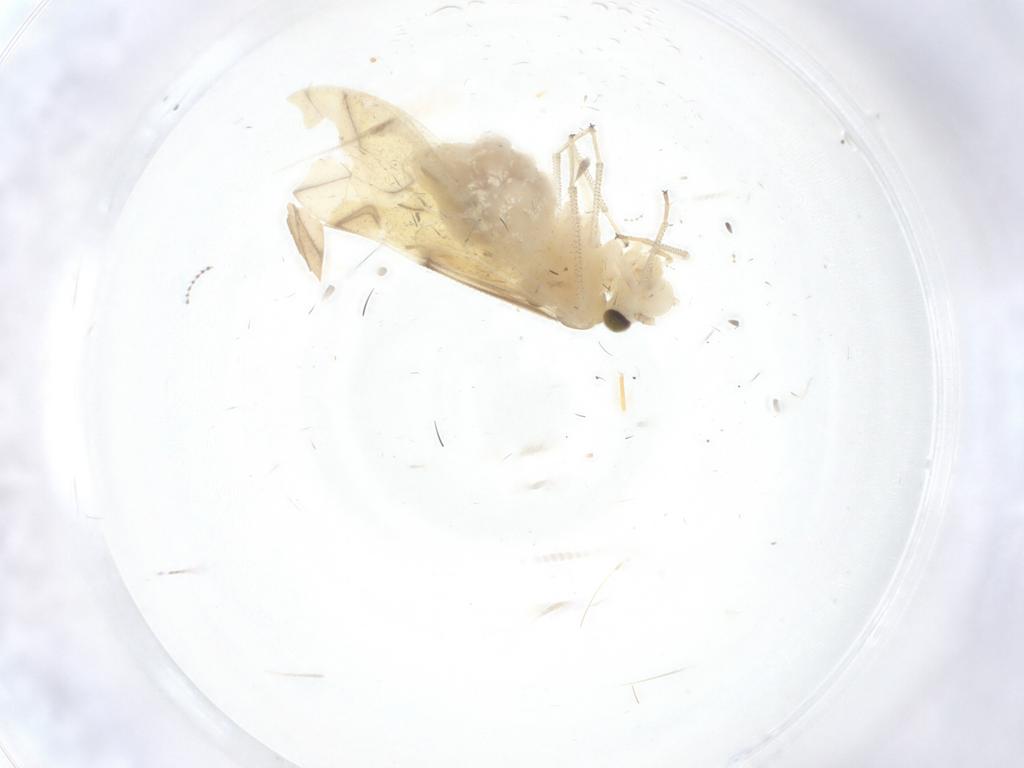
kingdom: Animalia
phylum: Arthropoda
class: Insecta
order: Psocodea
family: Caeciliusidae
